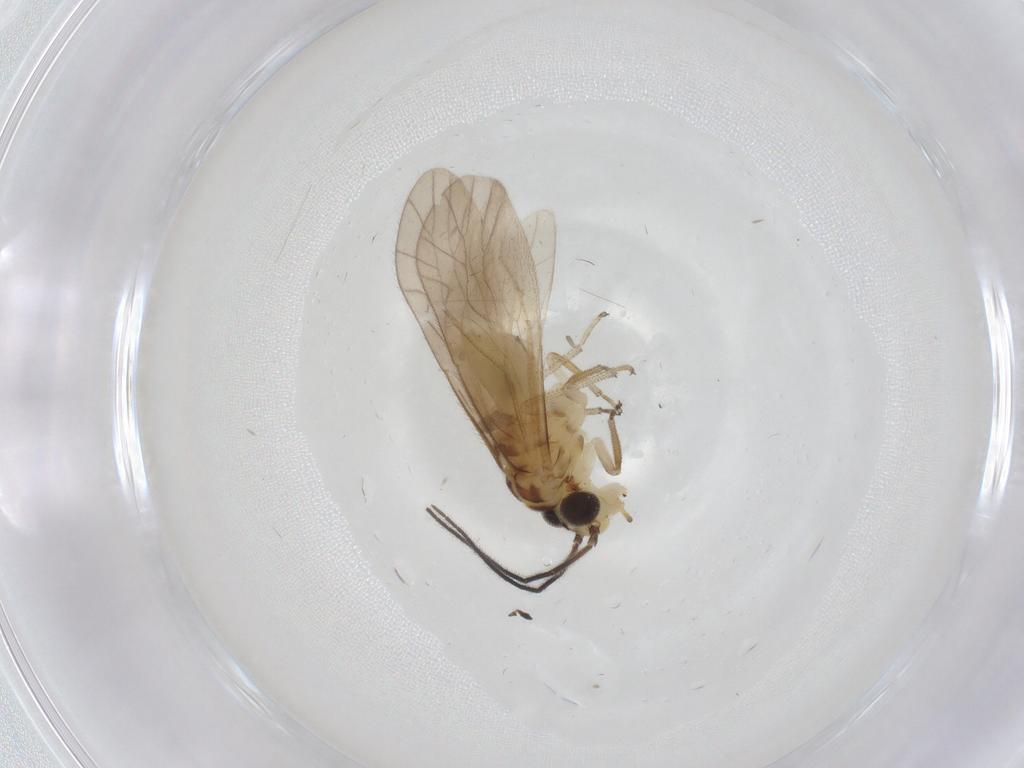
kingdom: Animalia
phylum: Arthropoda
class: Insecta
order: Psocodea
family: Caeciliusidae
